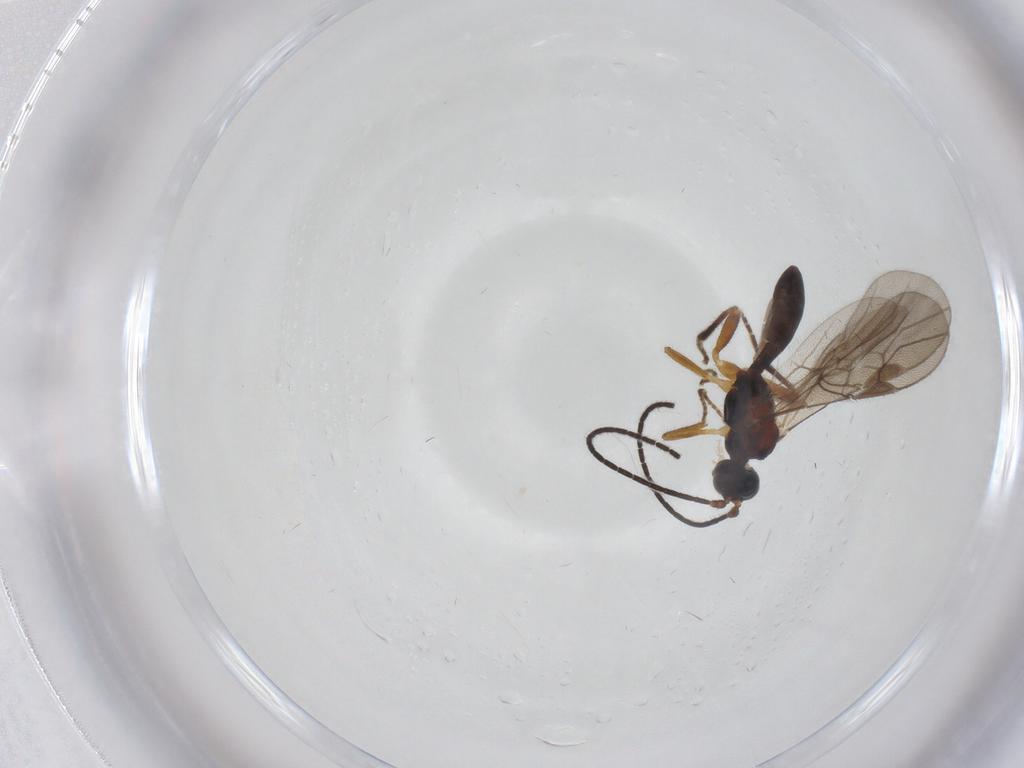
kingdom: Animalia
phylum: Arthropoda
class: Insecta
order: Hymenoptera
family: Braconidae
